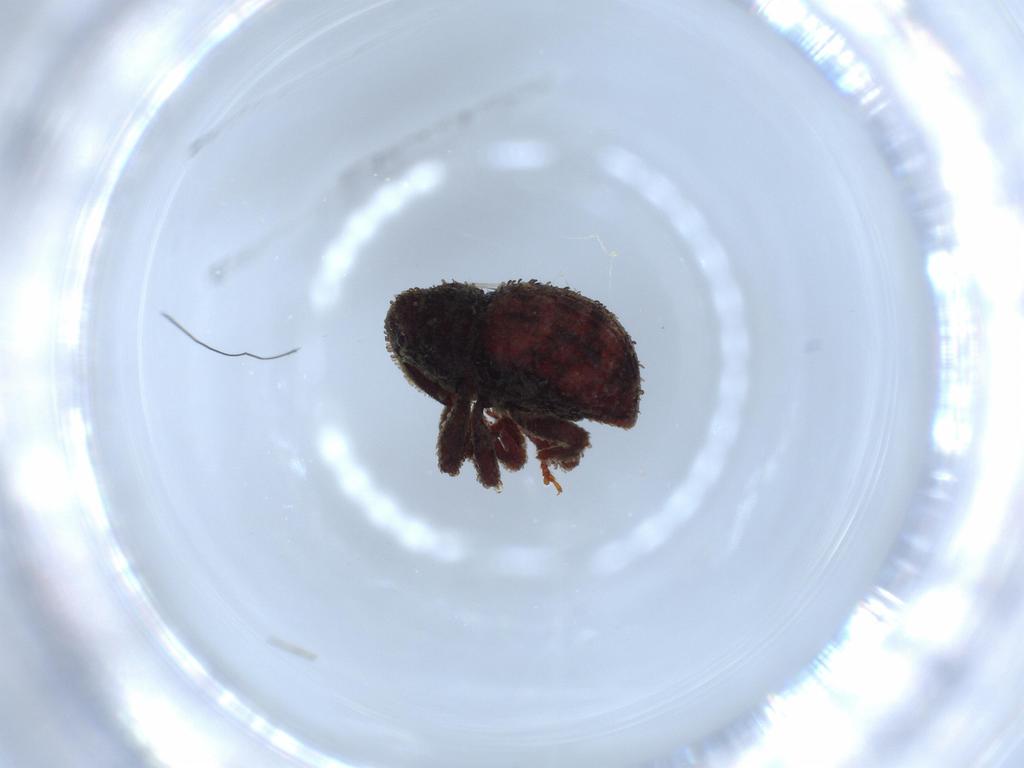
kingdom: Animalia
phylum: Arthropoda
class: Insecta
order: Coleoptera
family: Curculionidae
